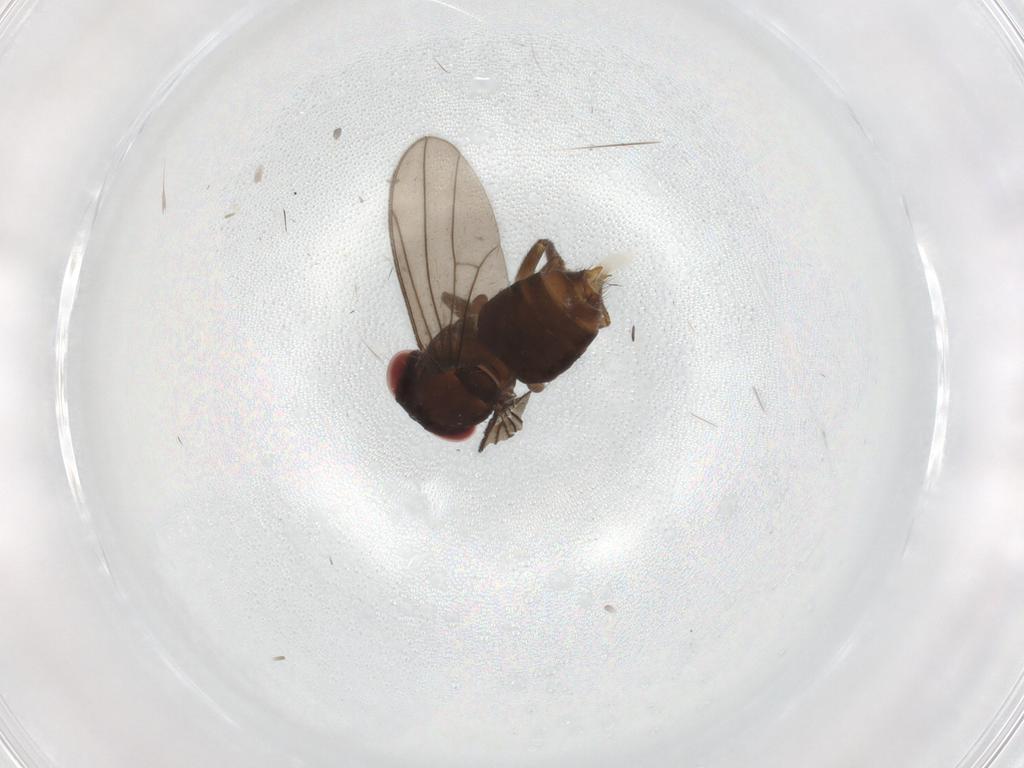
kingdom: Animalia
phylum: Arthropoda
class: Insecta
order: Diptera
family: Drosophilidae
